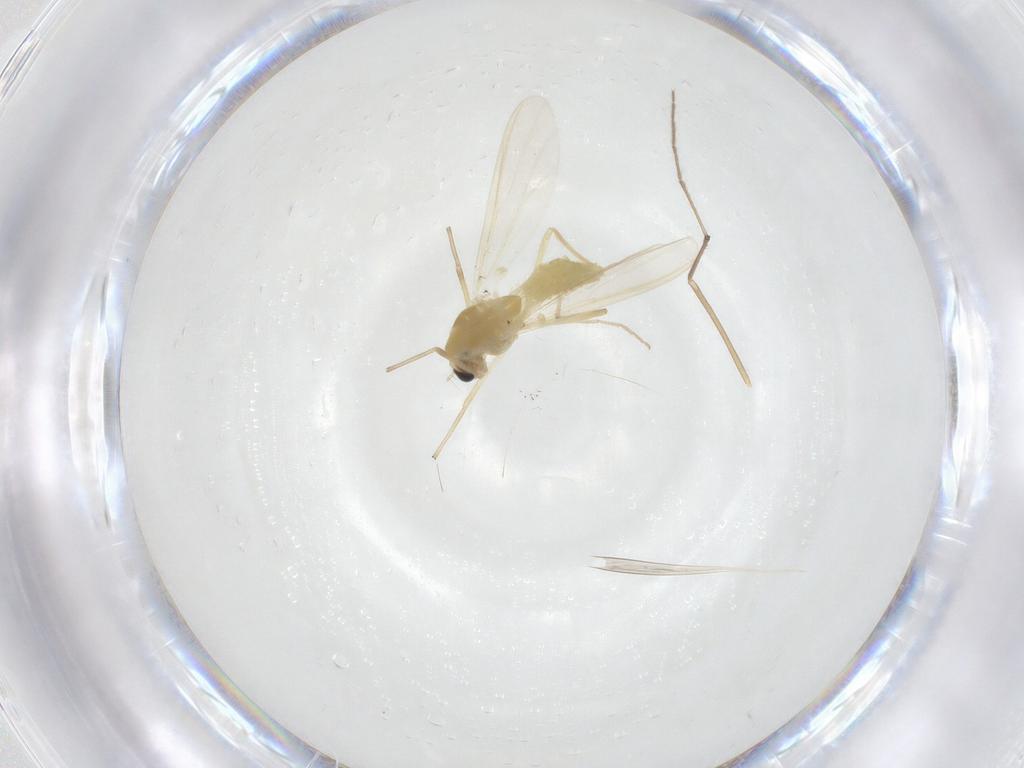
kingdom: Animalia
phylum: Arthropoda
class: Insecta
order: Diptera
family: Chironomidae
